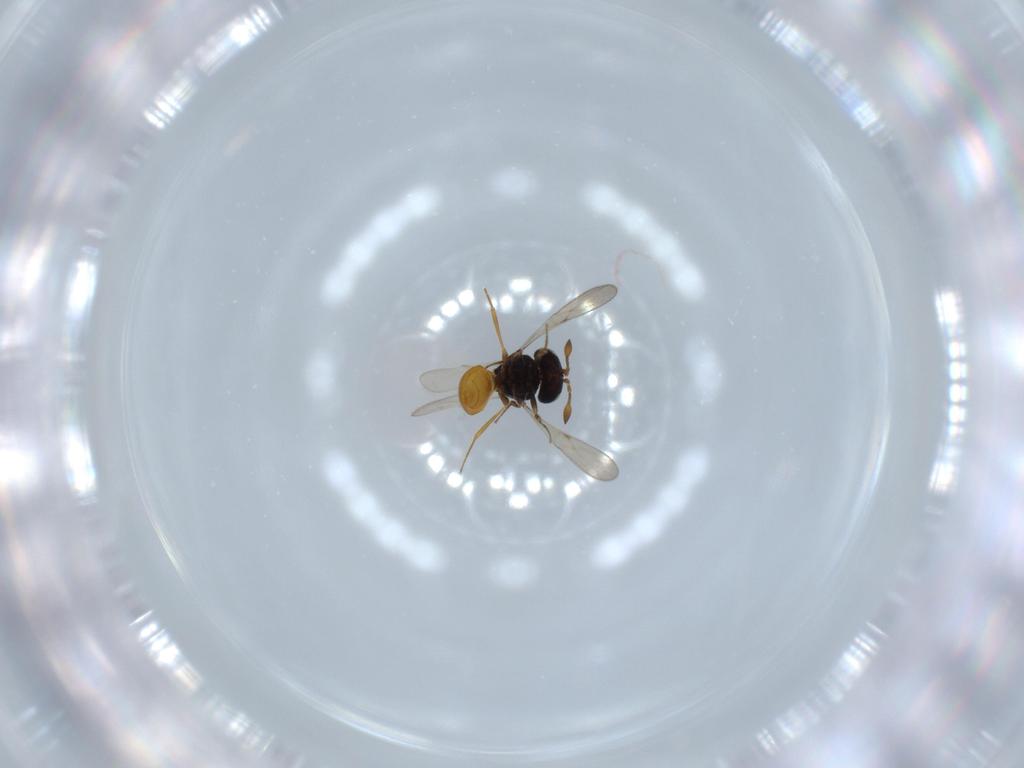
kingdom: Animalia
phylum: Arthropoda
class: Insecta
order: Hymenoptera
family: Scelionidae
